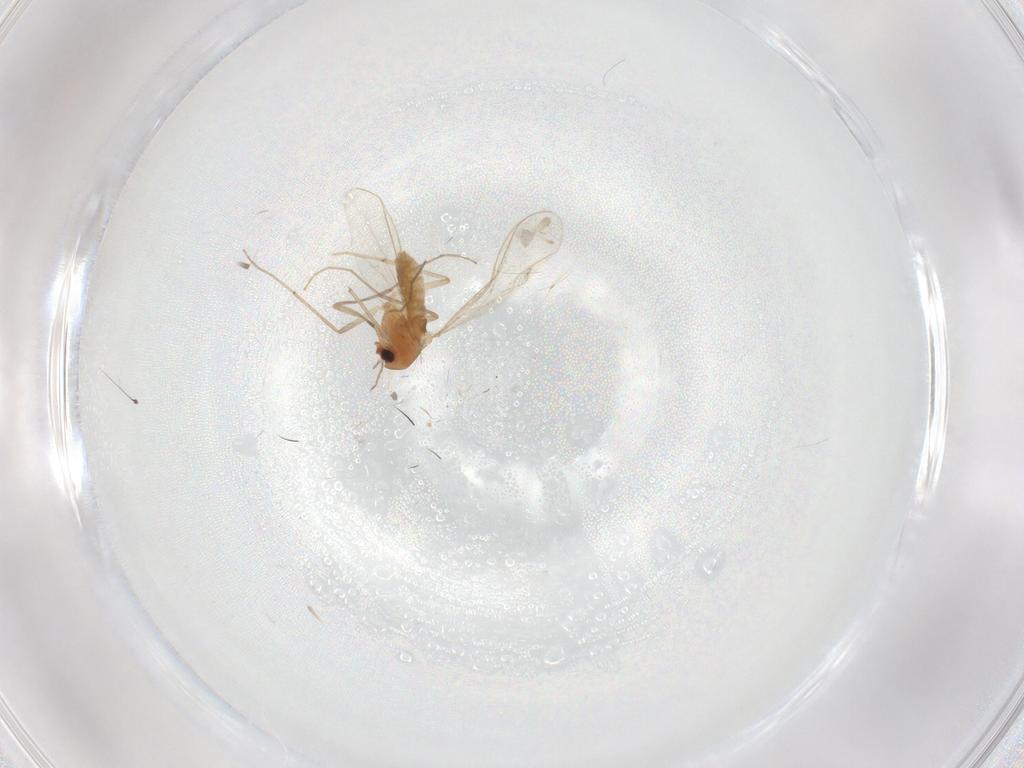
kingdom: Animalia
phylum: Arthropoda
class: Insecta
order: Diptera
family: Chironomidae
